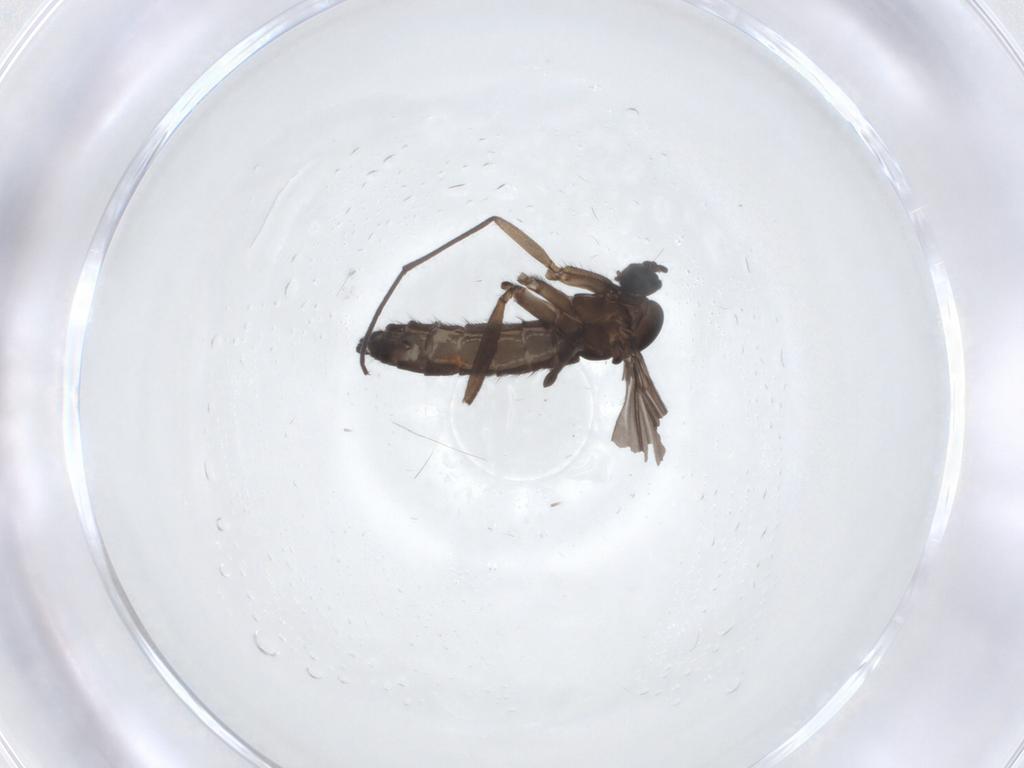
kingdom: Animalia
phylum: Arthropoda
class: Insecta
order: Diptera
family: Sciaridae
